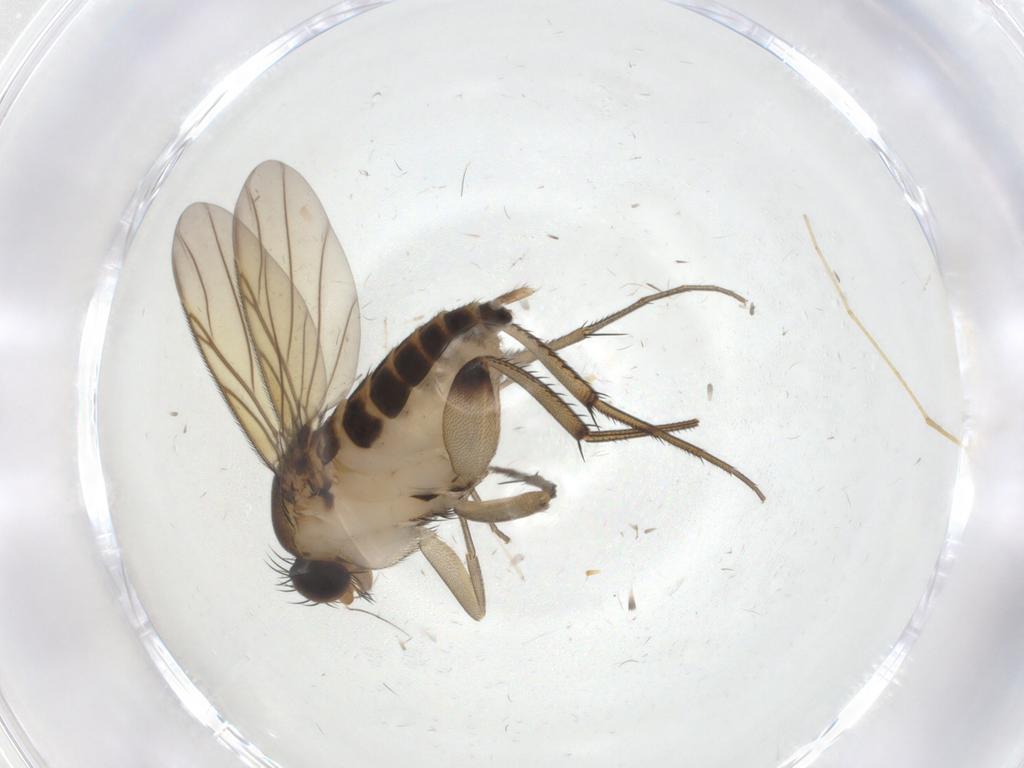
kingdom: Animalia
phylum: Arthropoda
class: Insecta
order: Diptera
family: Phoridae
